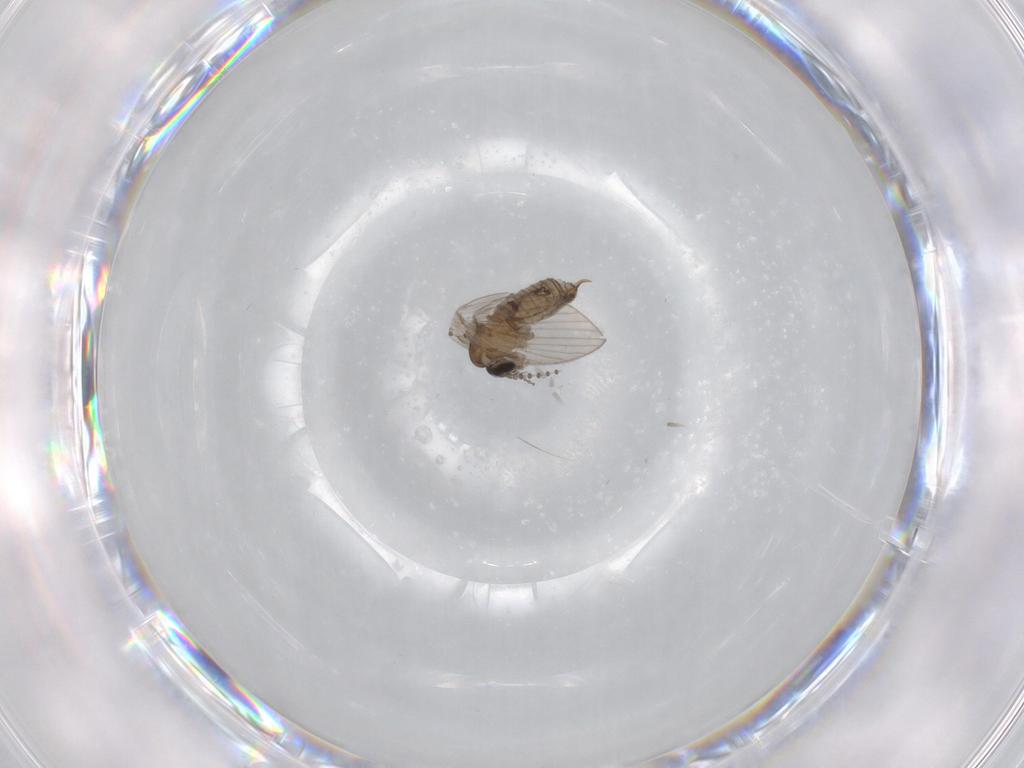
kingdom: Animalia
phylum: Arthropoda
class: Insecta
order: Diptera
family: Psychodidae
